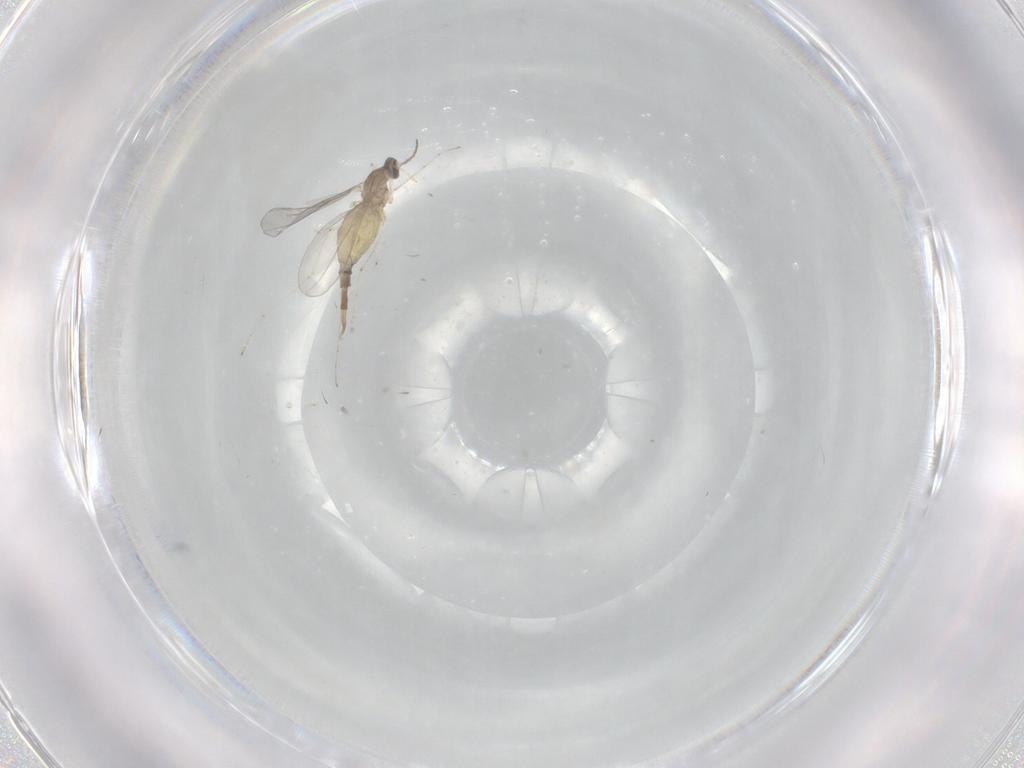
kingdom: Animalia
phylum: Arthropoda
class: Insecta
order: Diptera
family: Cecidomyiidae
